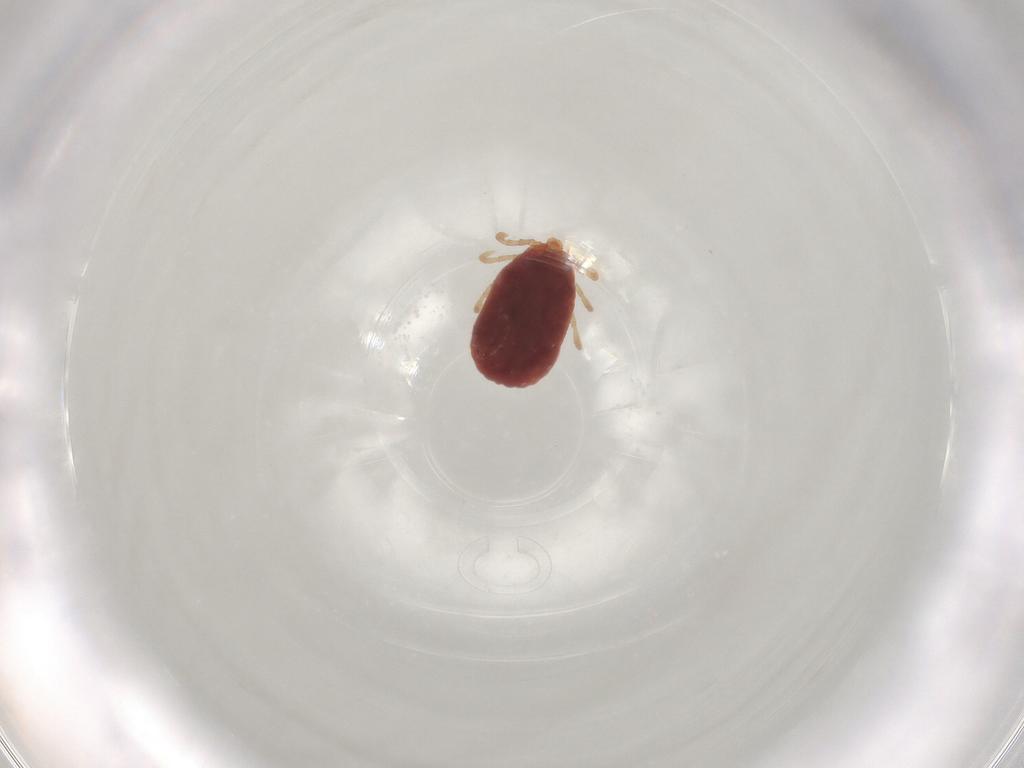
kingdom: Animalia
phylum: Arthropoda
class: Arachnida
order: Ixodida
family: Ixodidae
